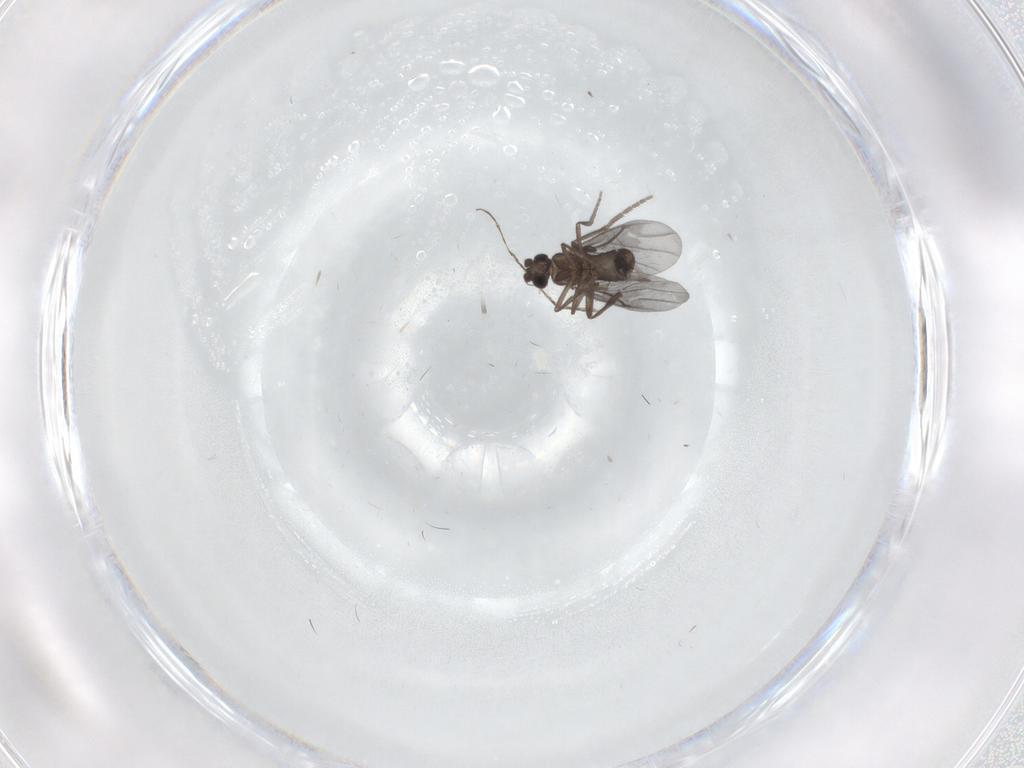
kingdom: Animalia
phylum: Arthropoda
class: Insecta
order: Diptera
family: Phoridae
